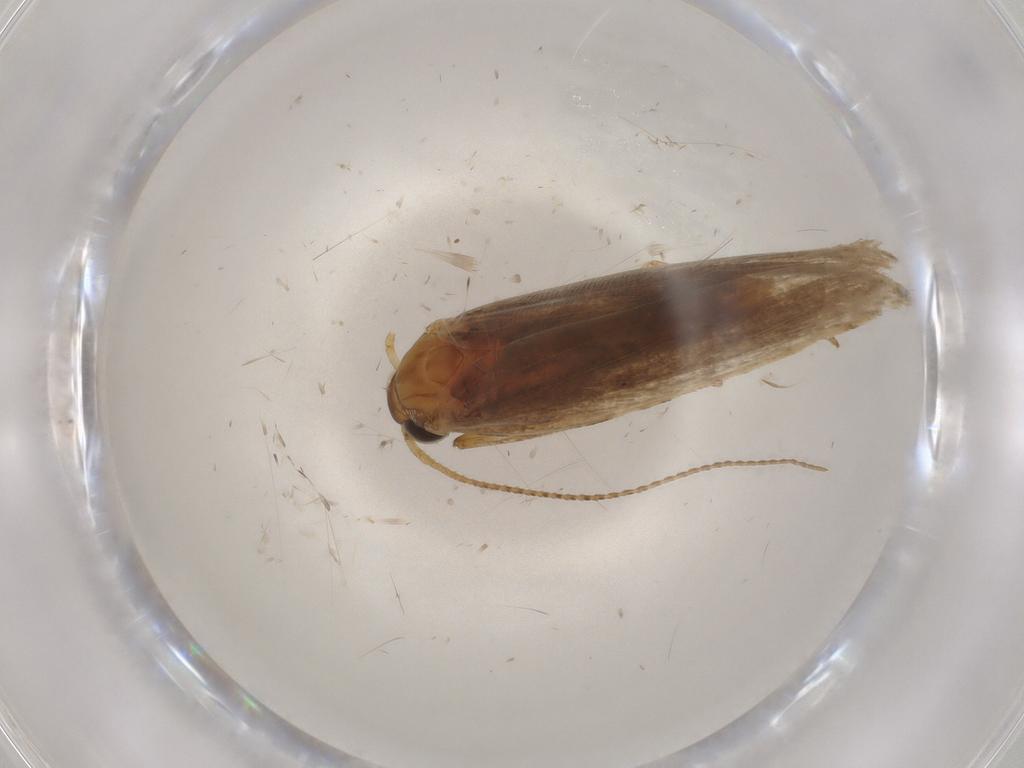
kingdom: Animalia
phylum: Arthropoda
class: Insecta
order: Lepidoptera
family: Gelechiidae
